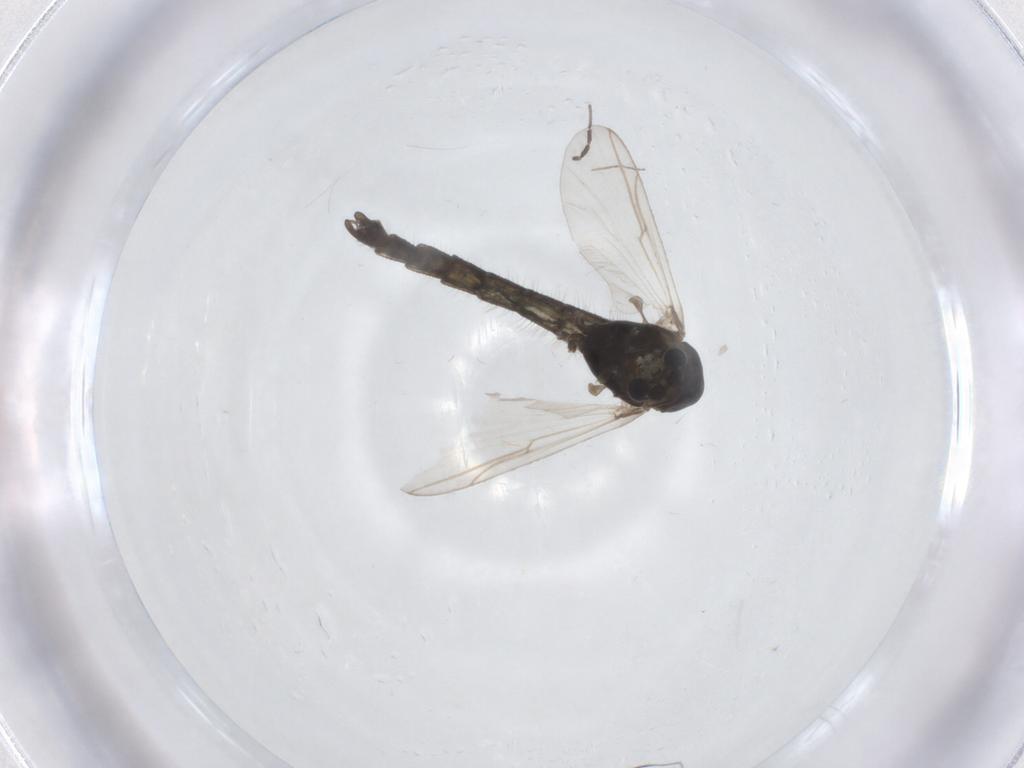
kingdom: Animalia
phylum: Arthropoda
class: Insecta
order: Diptera
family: Chironomidae
